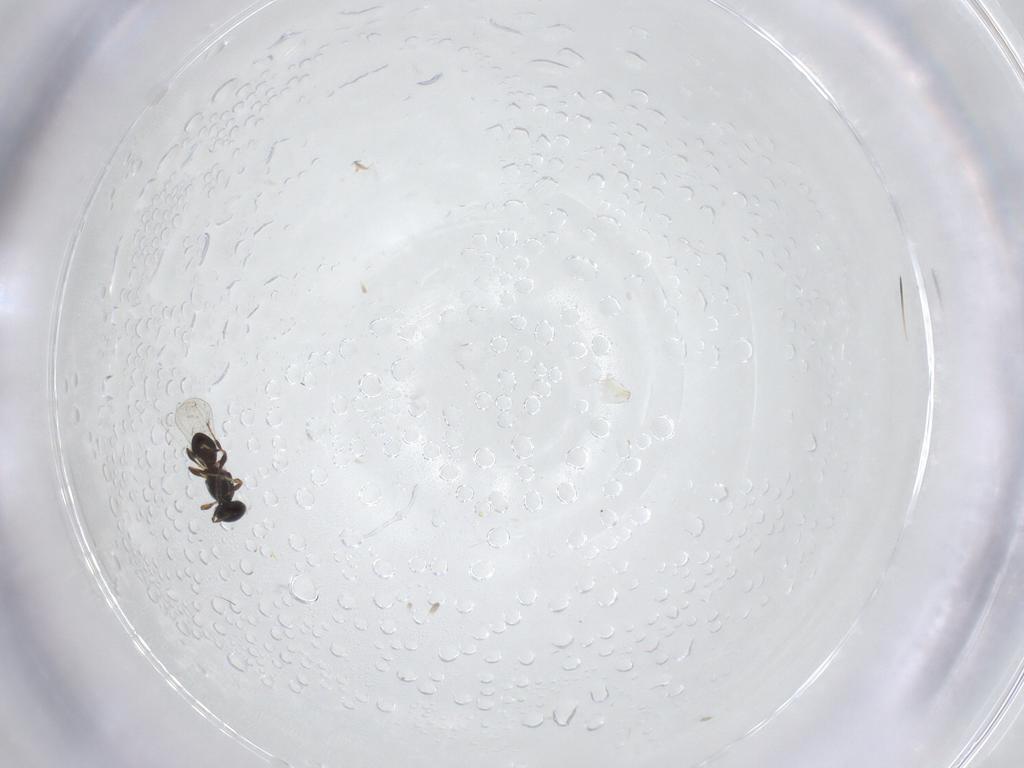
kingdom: Animalia
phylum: Arthropoda
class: Insecta
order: Hymenoptera
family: Platygastridae
